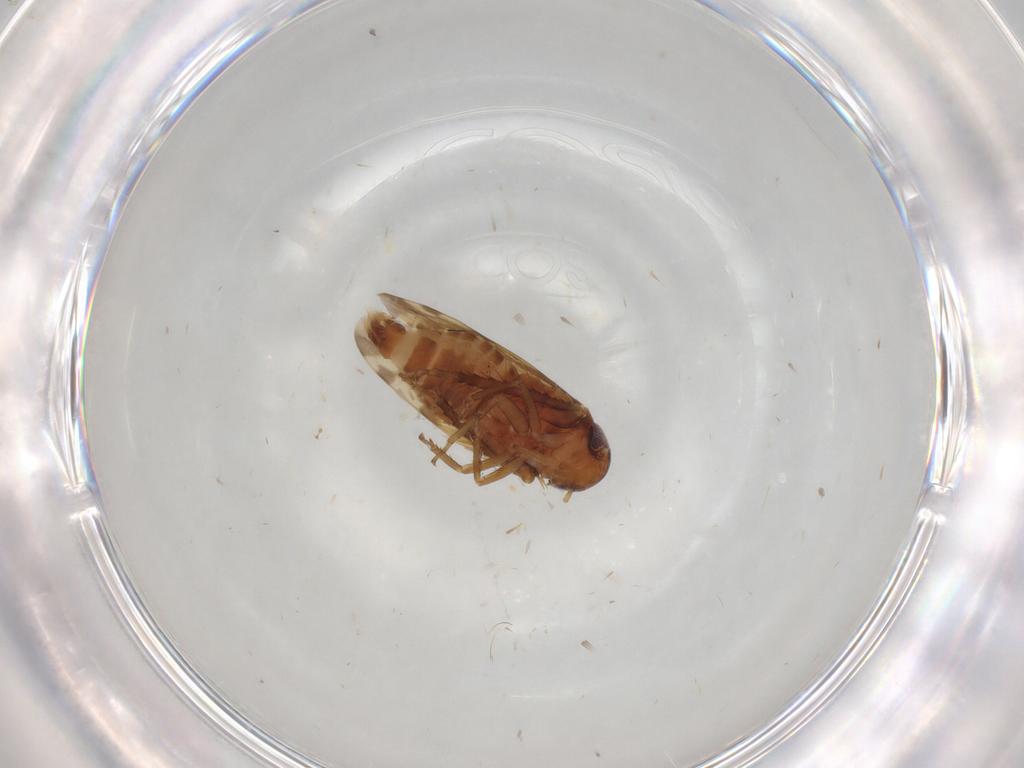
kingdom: Animalia
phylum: Arthropoda
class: Insecta
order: Hemiptera
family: Cicadellidae
